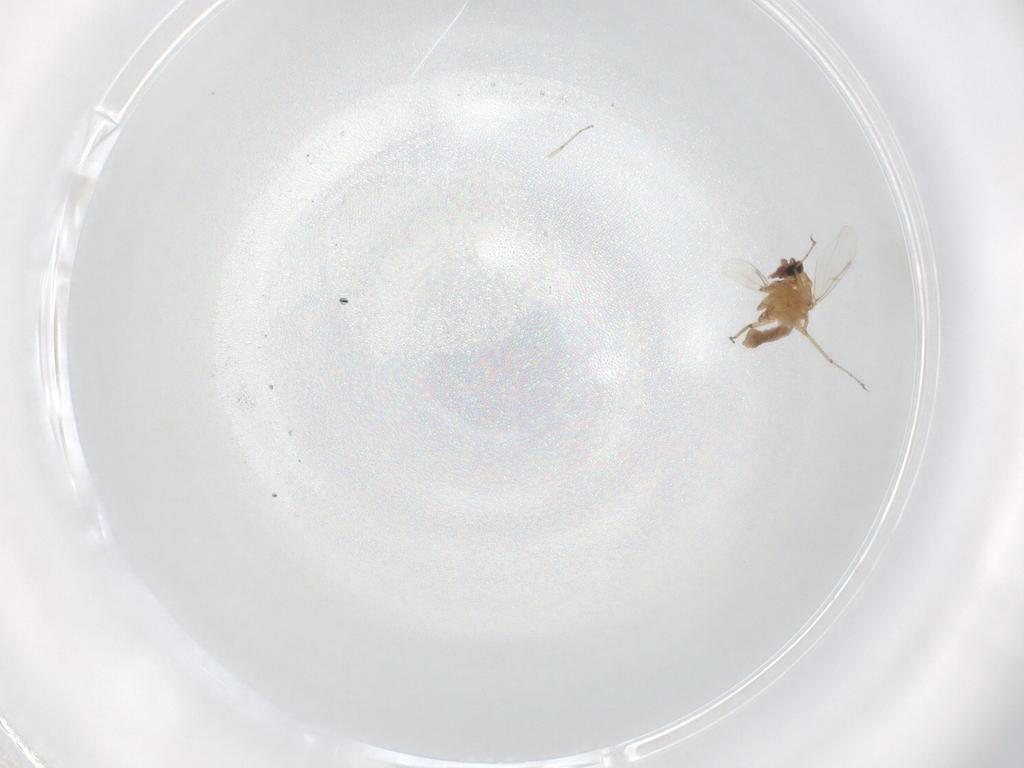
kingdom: Animalia
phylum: Arthropoda
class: Insecta
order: Diptera
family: Chironomidae
